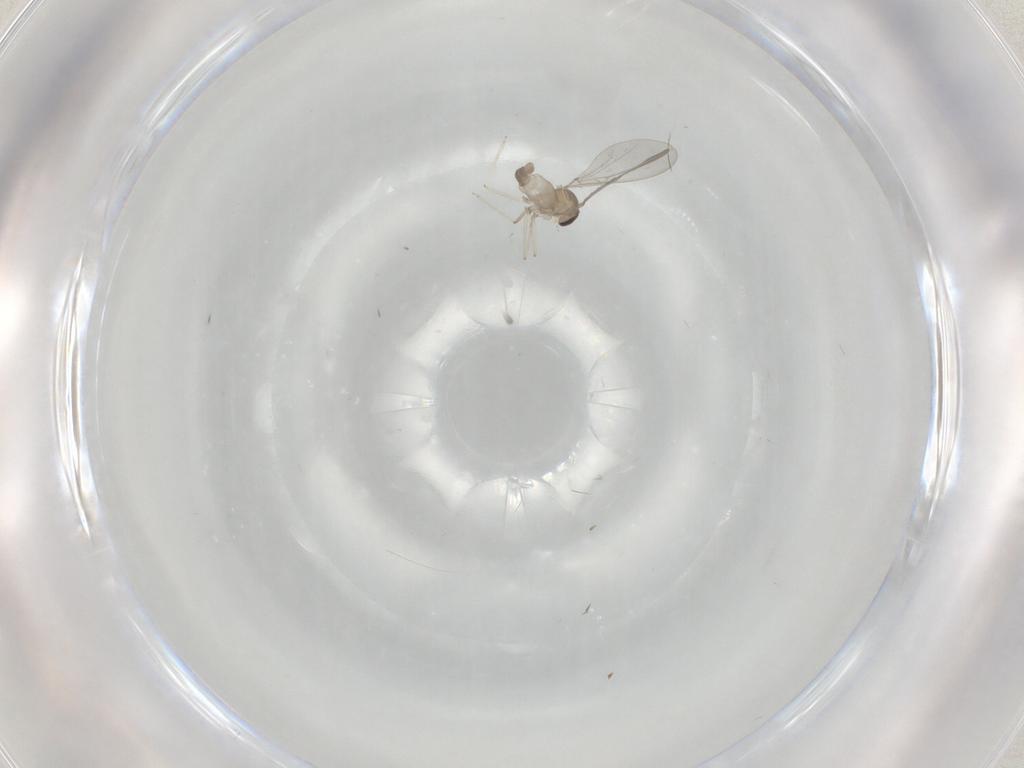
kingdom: Animalia
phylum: Arthropoda
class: Insecta
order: Diptera
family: Cecidomyiidae
